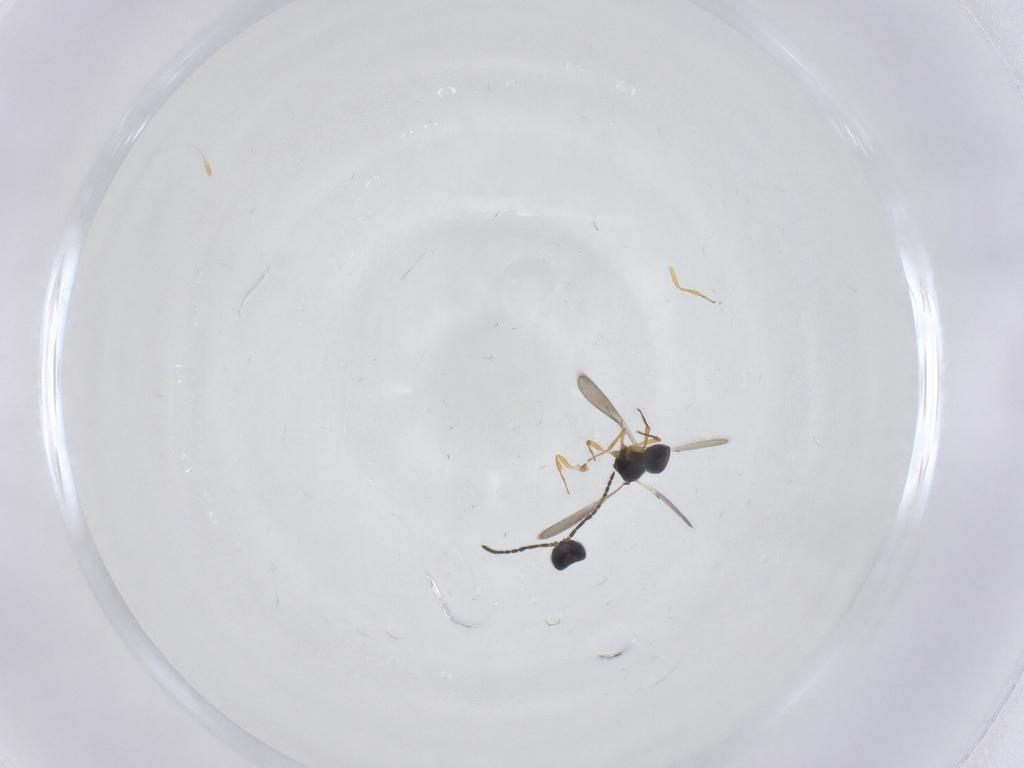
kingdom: Animalia
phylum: Arthropoda
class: Insecta
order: Hymenoptera
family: Scelionidae
